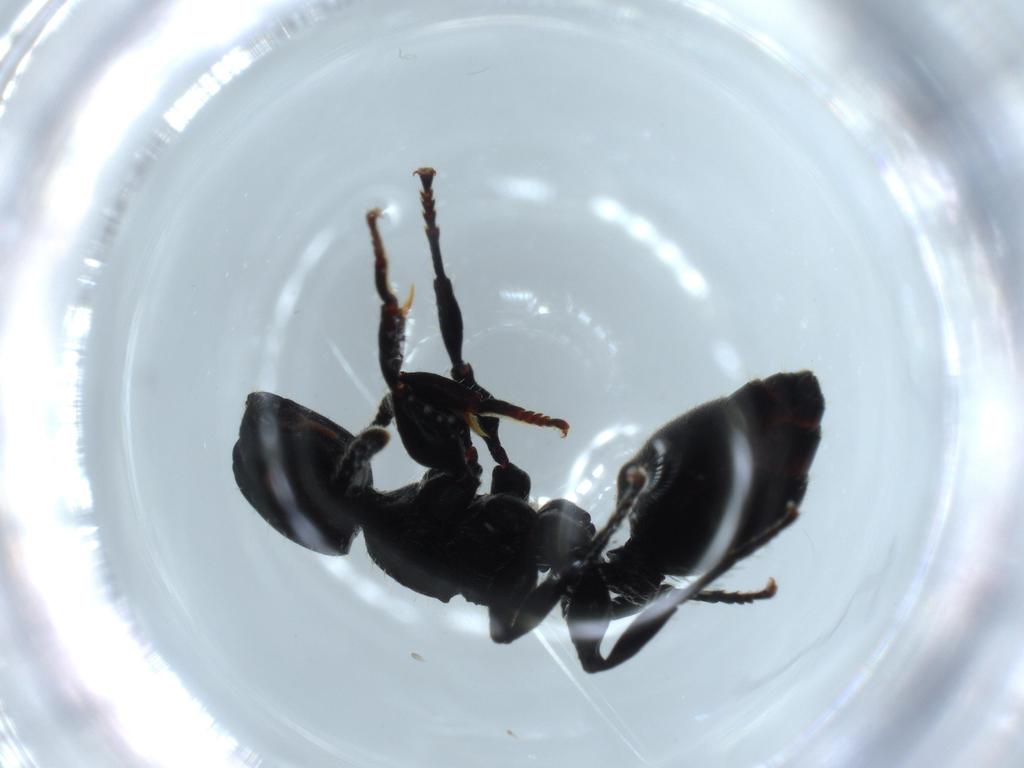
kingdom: Animalia
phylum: Arthropoda
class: Insecta
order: Hymenoptera
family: Formicidae
